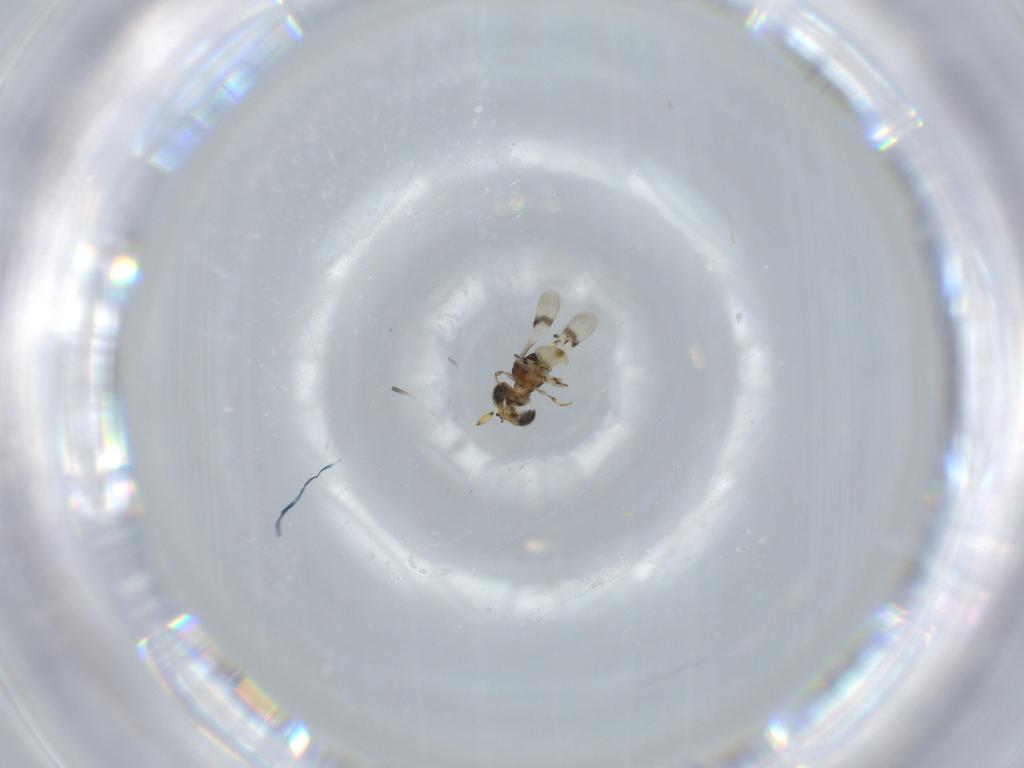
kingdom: Animalia
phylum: Arthropoda
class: Insecta
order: Hymenoptera
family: Scelionidae
